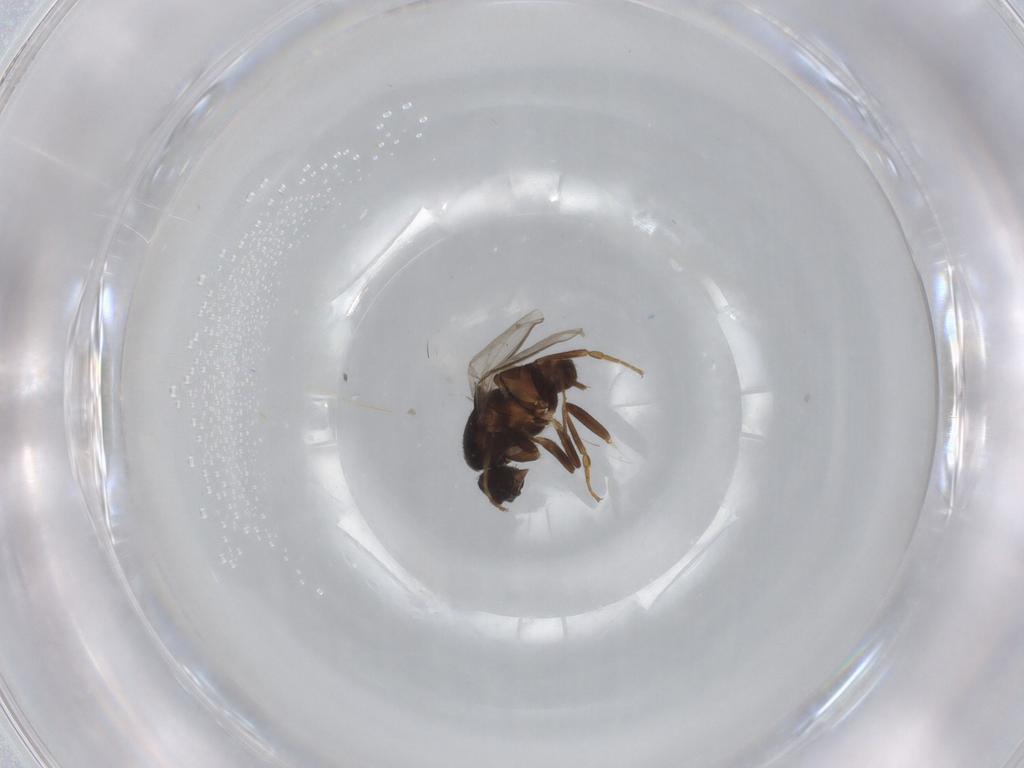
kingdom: Animalia
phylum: Arthropoda
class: Insecta
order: Diptera
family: Sphaeroceridae
